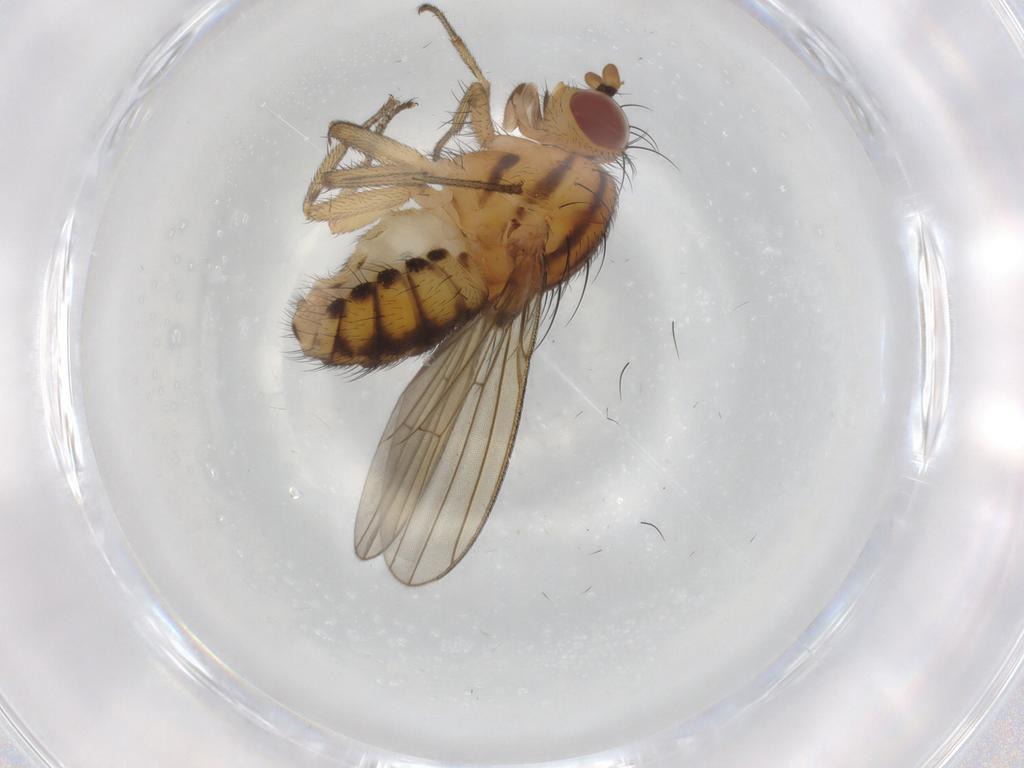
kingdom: Animalia
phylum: Arthropoda
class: Insecta
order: Diptera
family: Ceratopogonidae
